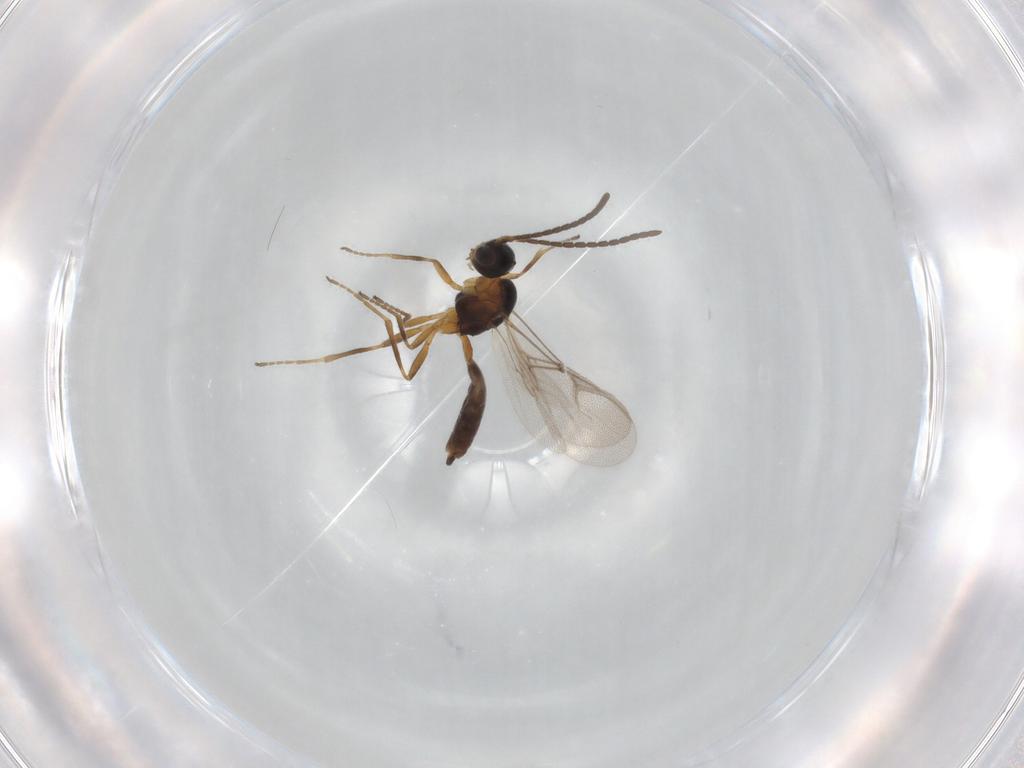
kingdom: Animalia
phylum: Arthropoda
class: Insecta
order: Hymenoptera
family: Braconidae
